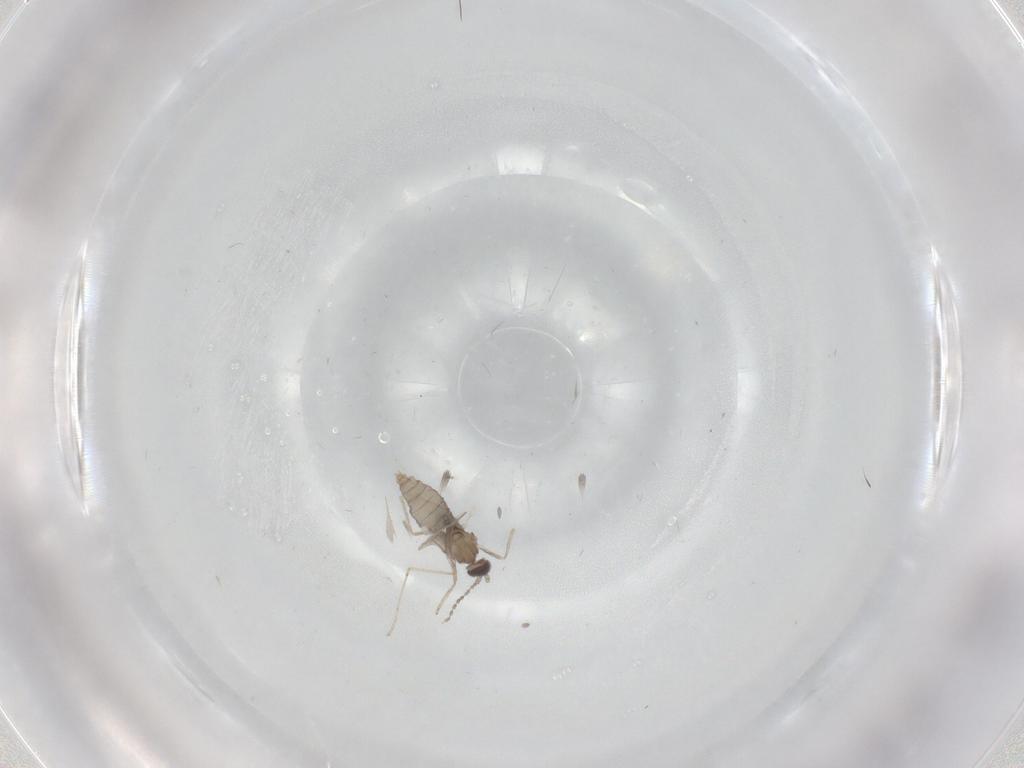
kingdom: Animalia
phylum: Arthropoda
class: Insecta
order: Diptera
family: Cecidomyiidae
